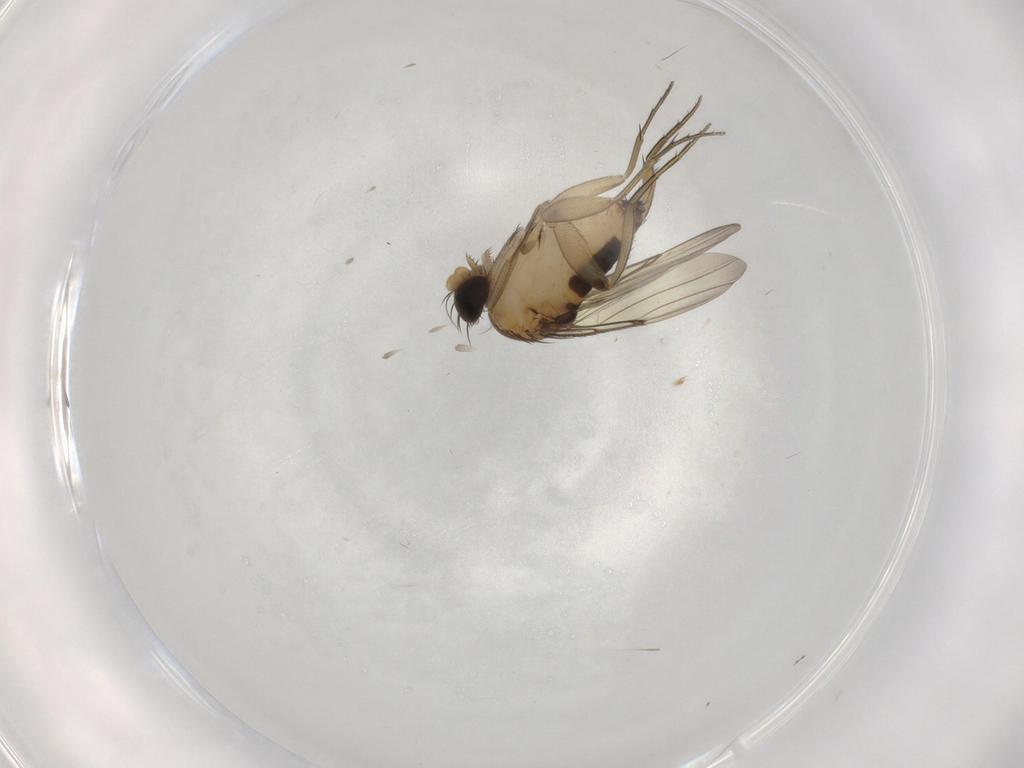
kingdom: Animalia
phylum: Arthropoda
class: Insecta
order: Diptera
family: Phoridae
